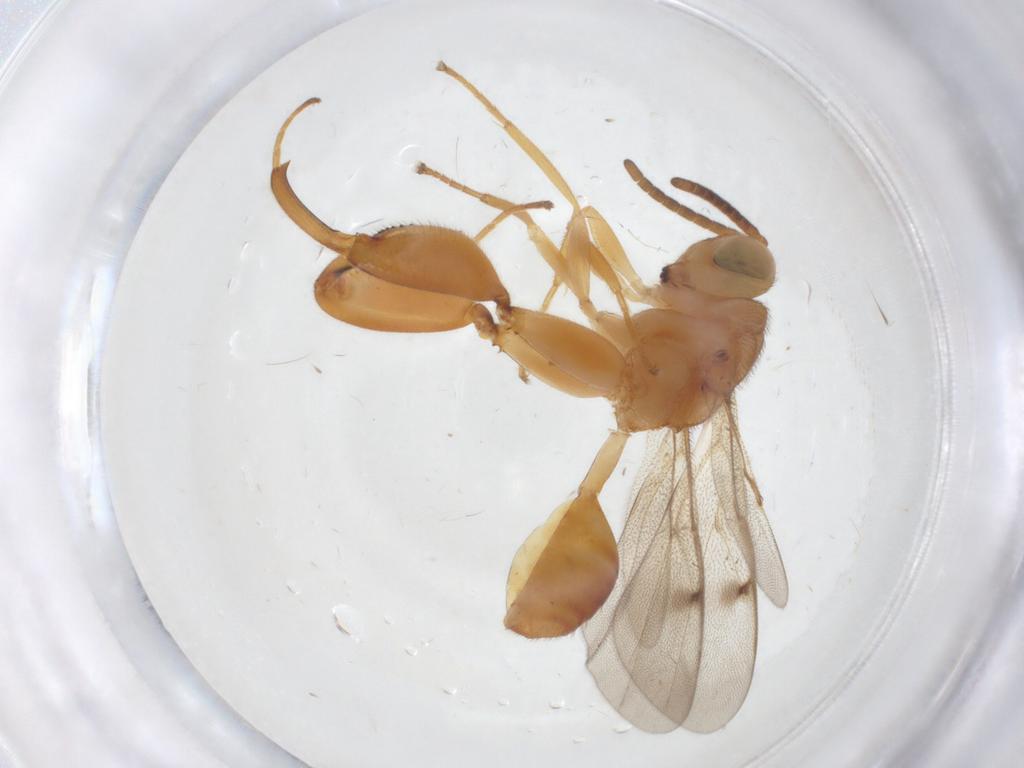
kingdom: Animalia
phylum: Arthropoda
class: Insecta
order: Hymenoptera
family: Chalcididae
